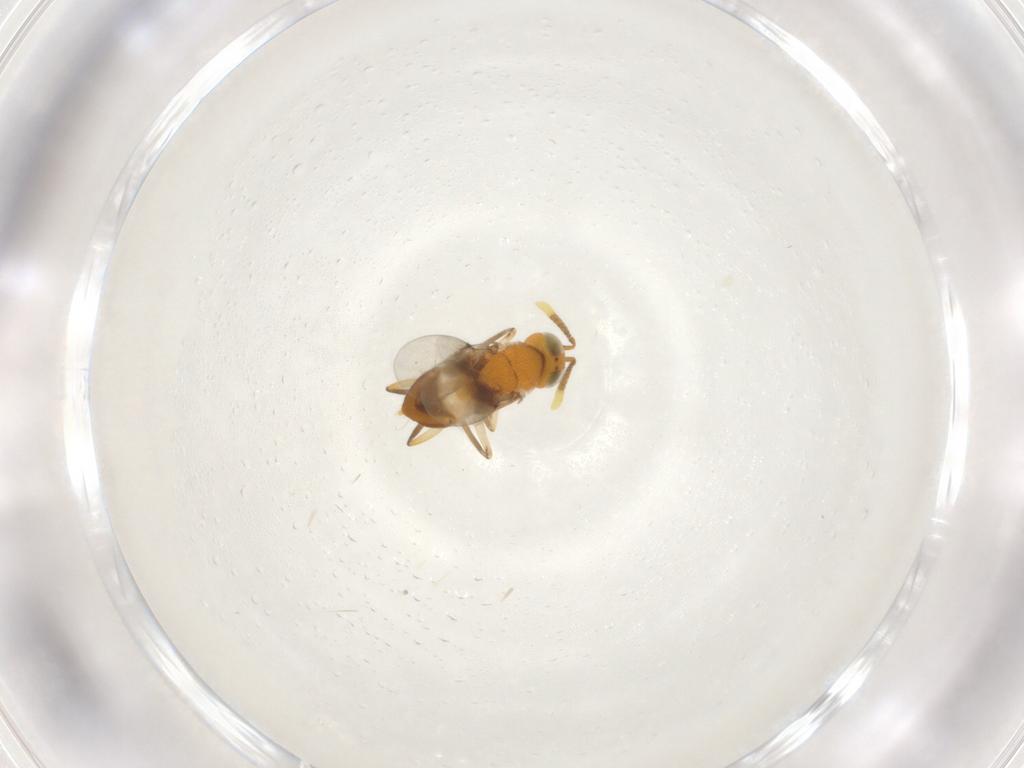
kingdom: Animalia
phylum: Arthropoda
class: Insecta
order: Hymenoptera
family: Encyrtidae
